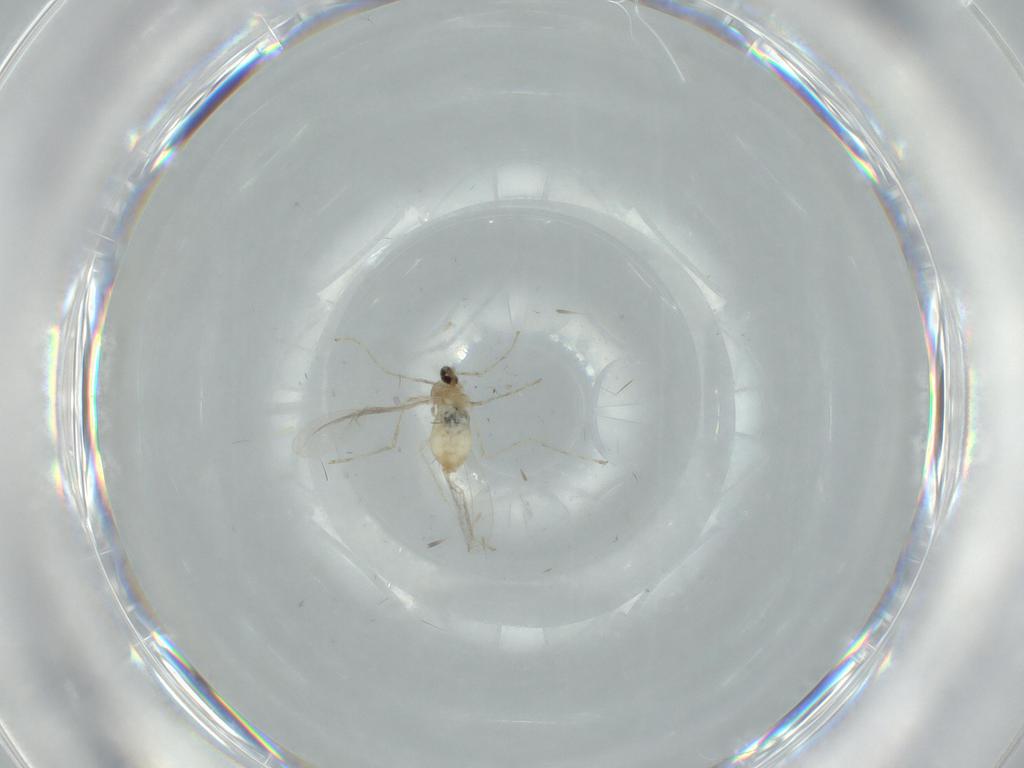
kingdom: Animalia
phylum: Arthropoda
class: Insecta
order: Diptera
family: Cecidomyiidae
